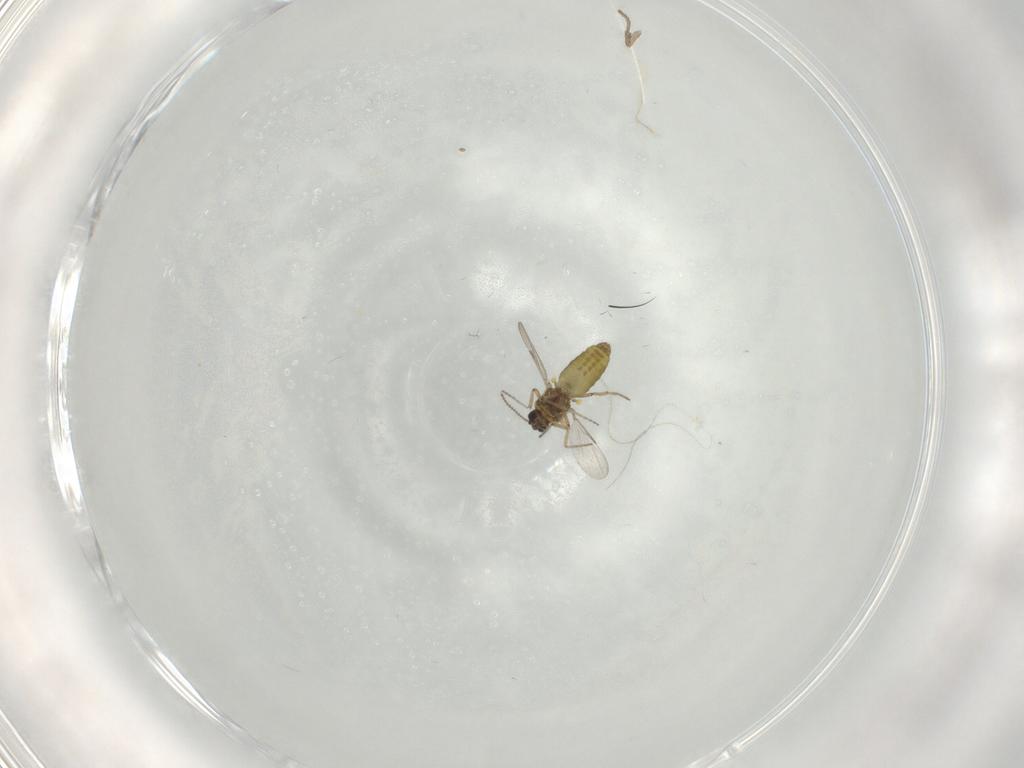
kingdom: Animalia
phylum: Arthropoda
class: Insecta
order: Diptera
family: Ceratopogonidae
